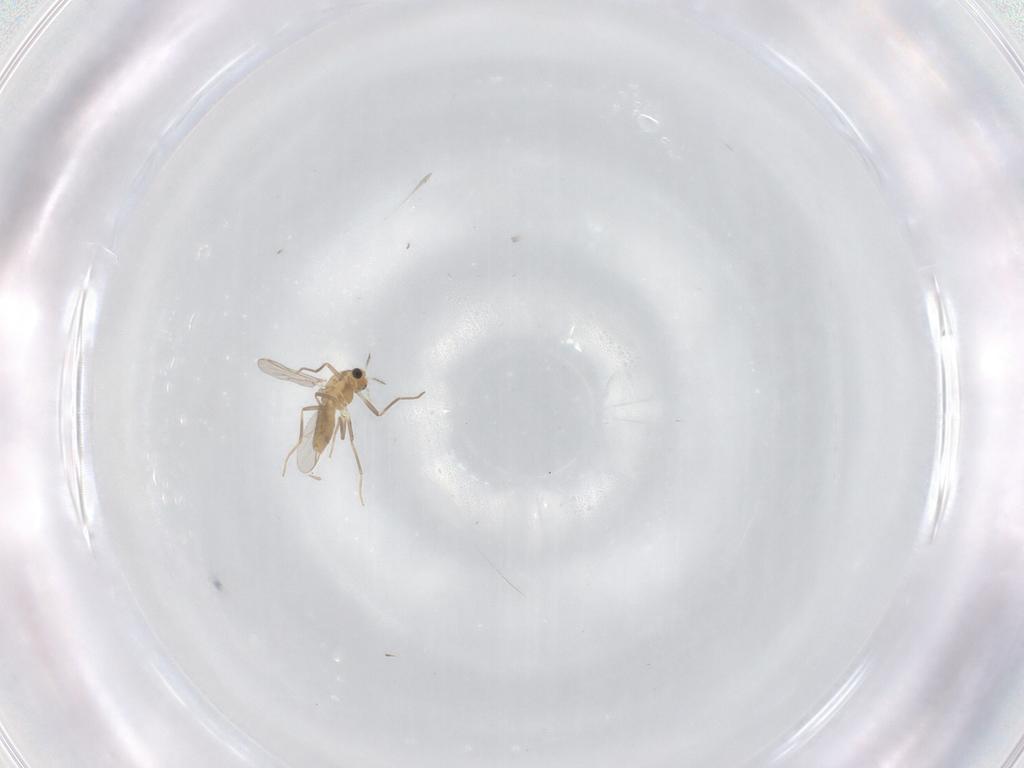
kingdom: Animalia
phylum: Arthropoda
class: Insecta
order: Diptera
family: Chironomidae
